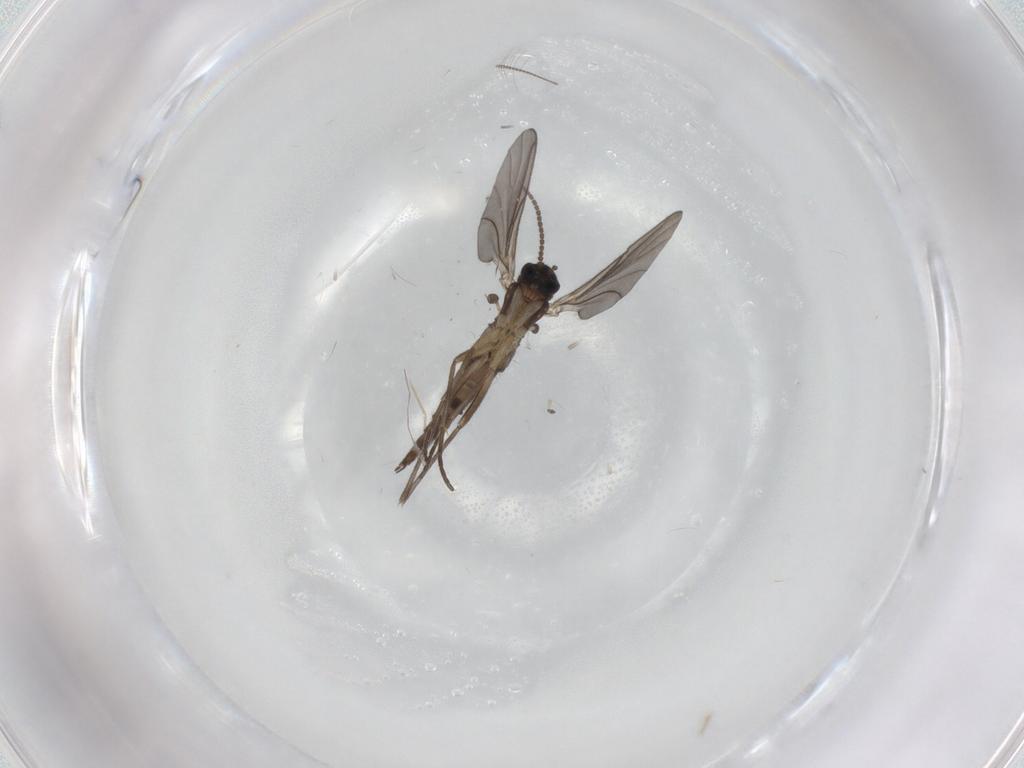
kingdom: Animalia
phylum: Arthropoda
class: Insecta
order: Diptera
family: Sciaridae
